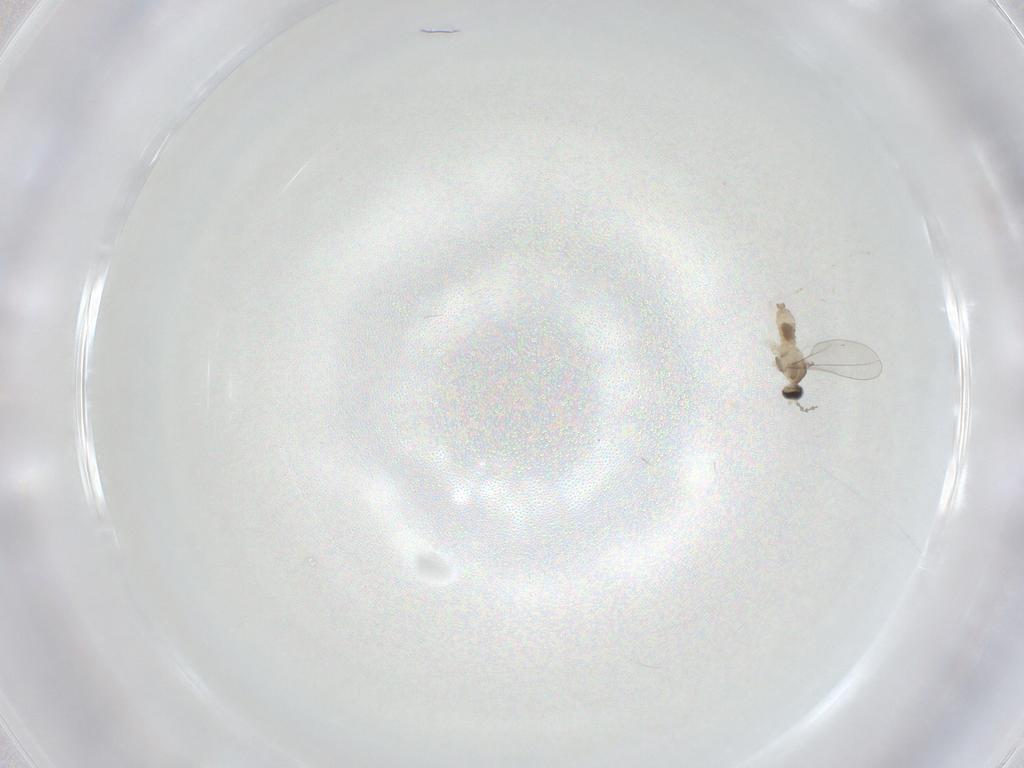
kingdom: Animalia
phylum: Arthropoda
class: Insecta
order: Diptera
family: Cecidomyiidae
